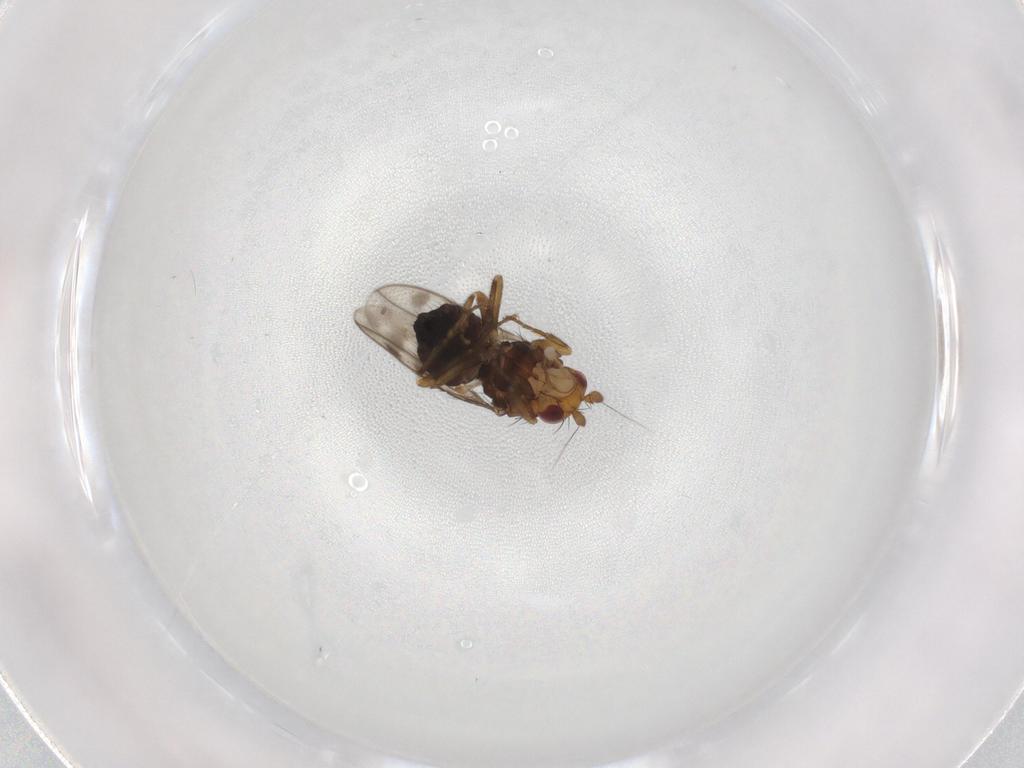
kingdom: Animalia
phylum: Arthropoda
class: Insecta
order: Diptera
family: Sphaeroceridae
